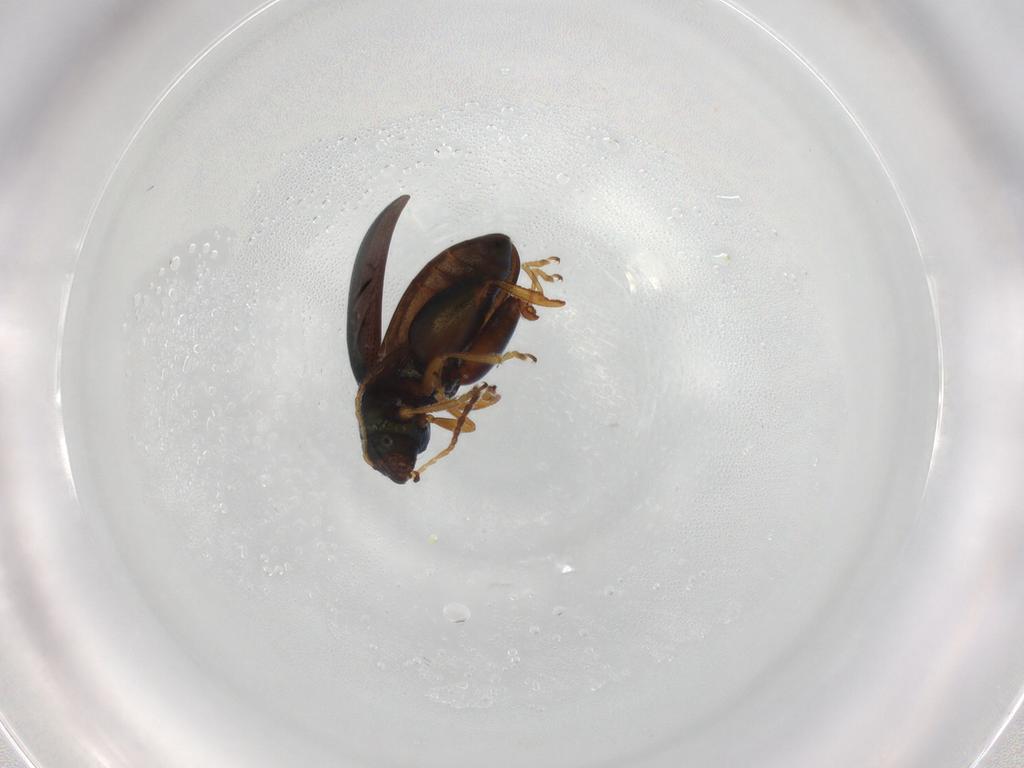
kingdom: Animalia
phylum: Arthropoda
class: Insecta
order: Coleoptera
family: Chrysomelidae
